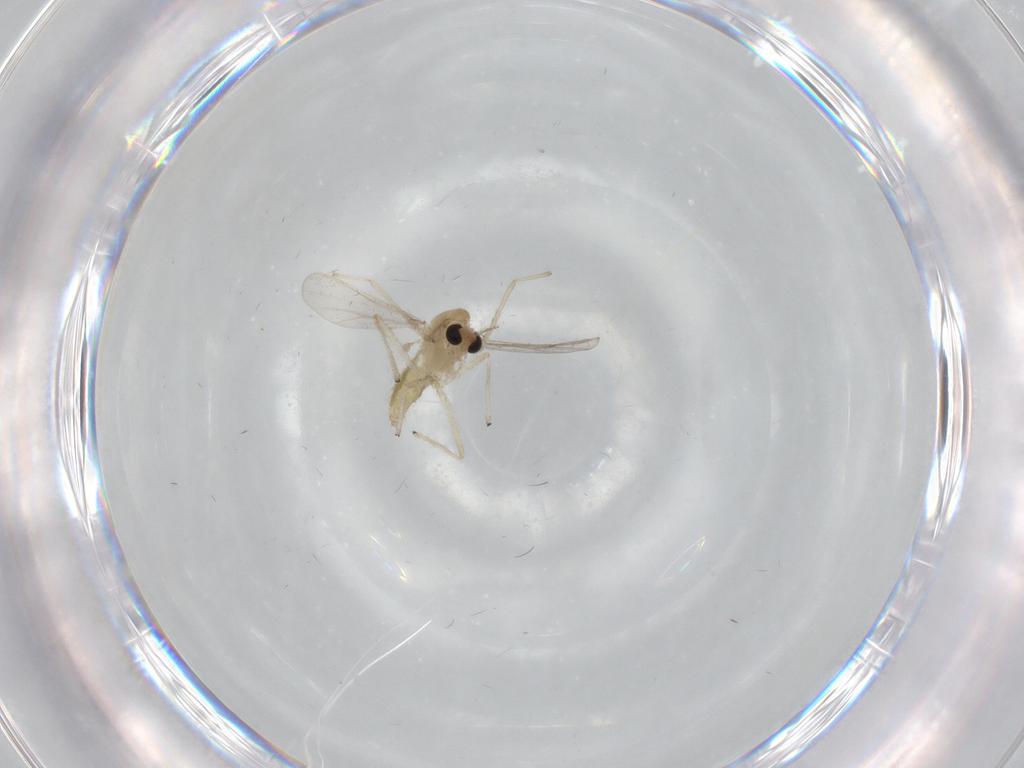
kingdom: Animalia
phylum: Arthropoda
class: Insecta
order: Diptera
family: Chironomidae
